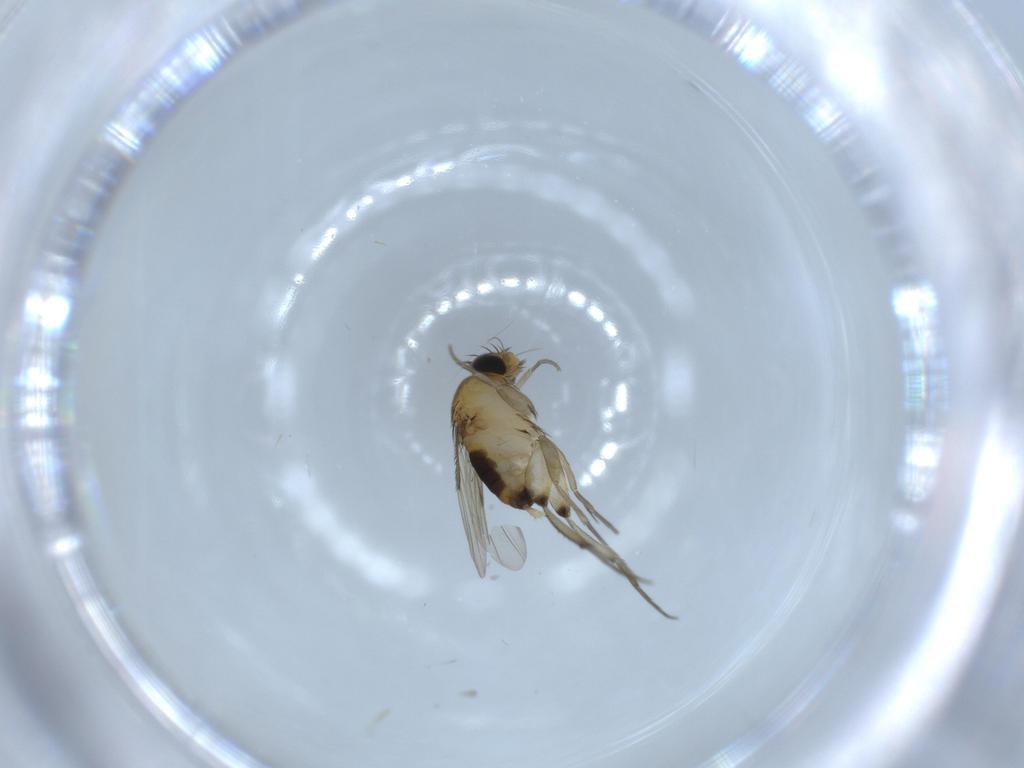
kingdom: Animalia
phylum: Arthropoda
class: Insecta
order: Diptera
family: Phoridae
